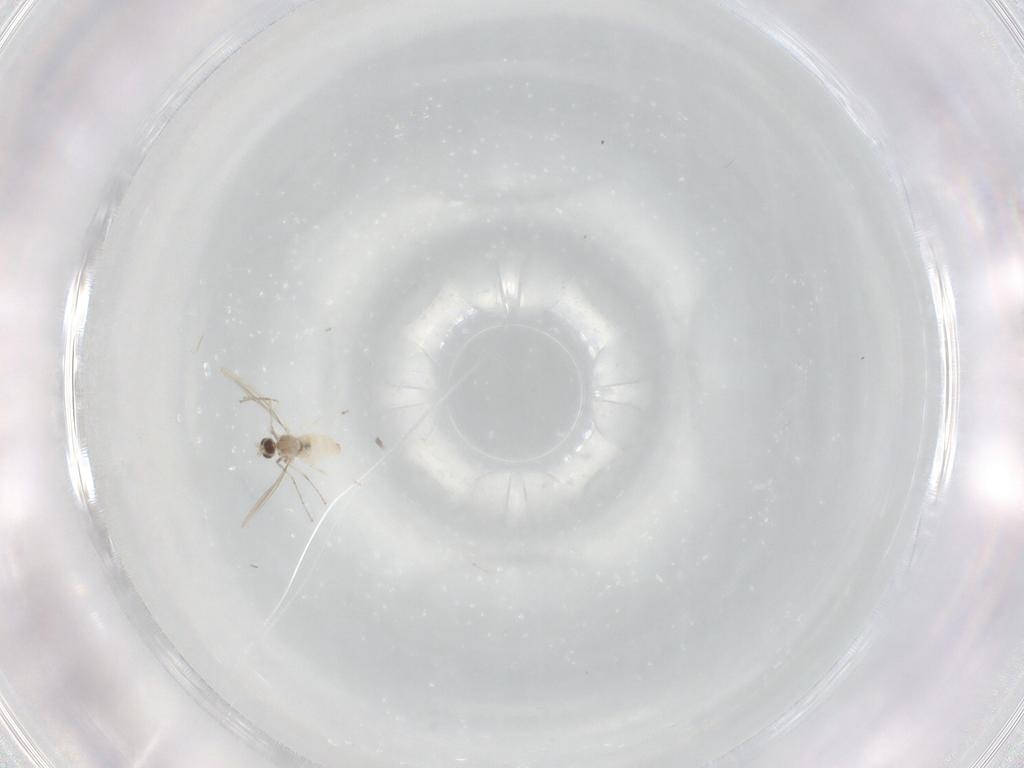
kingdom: Animalia
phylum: Arthropoda
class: Insecta
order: Diptera
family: Cecidomyiidae
